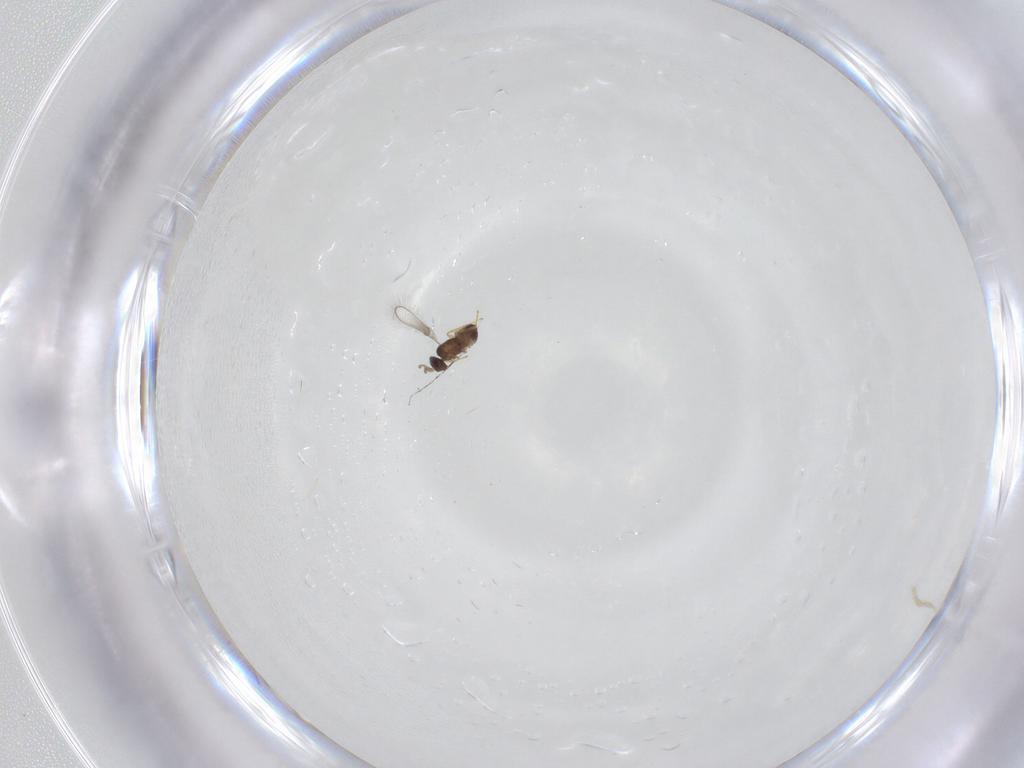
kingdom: Animalia
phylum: Arthropoda
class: Insecta
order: Hymenoptera
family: Mymaridae
